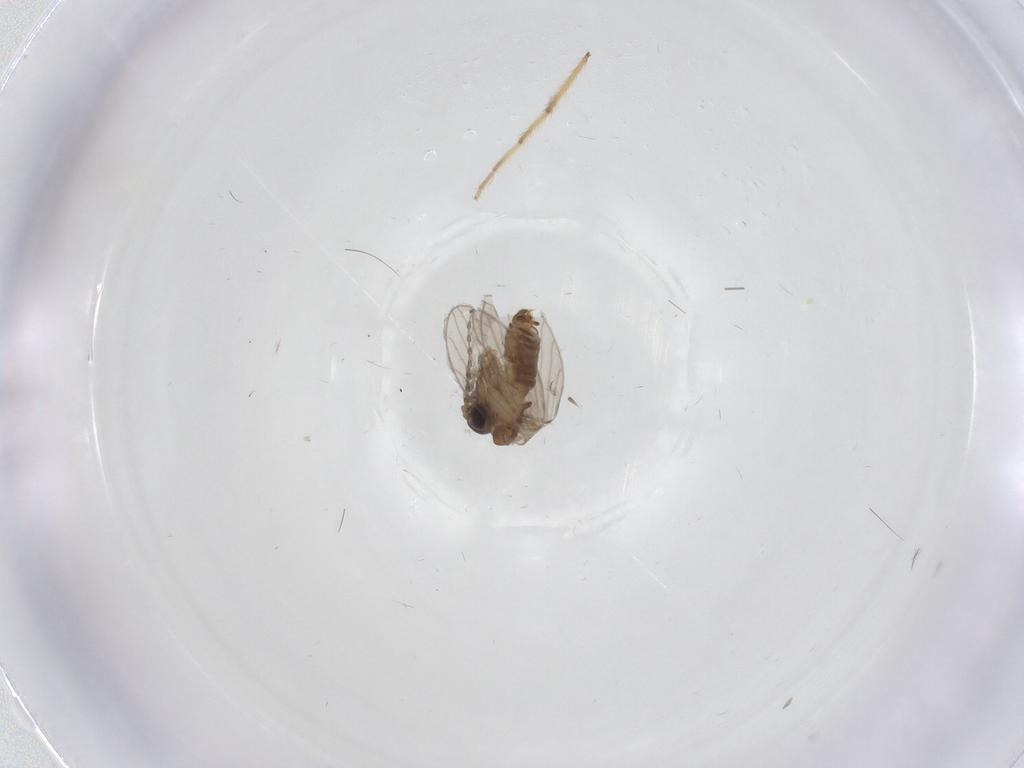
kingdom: Animalia
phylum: Arthropoda
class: Insecta
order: Diptera
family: Chironomidae
